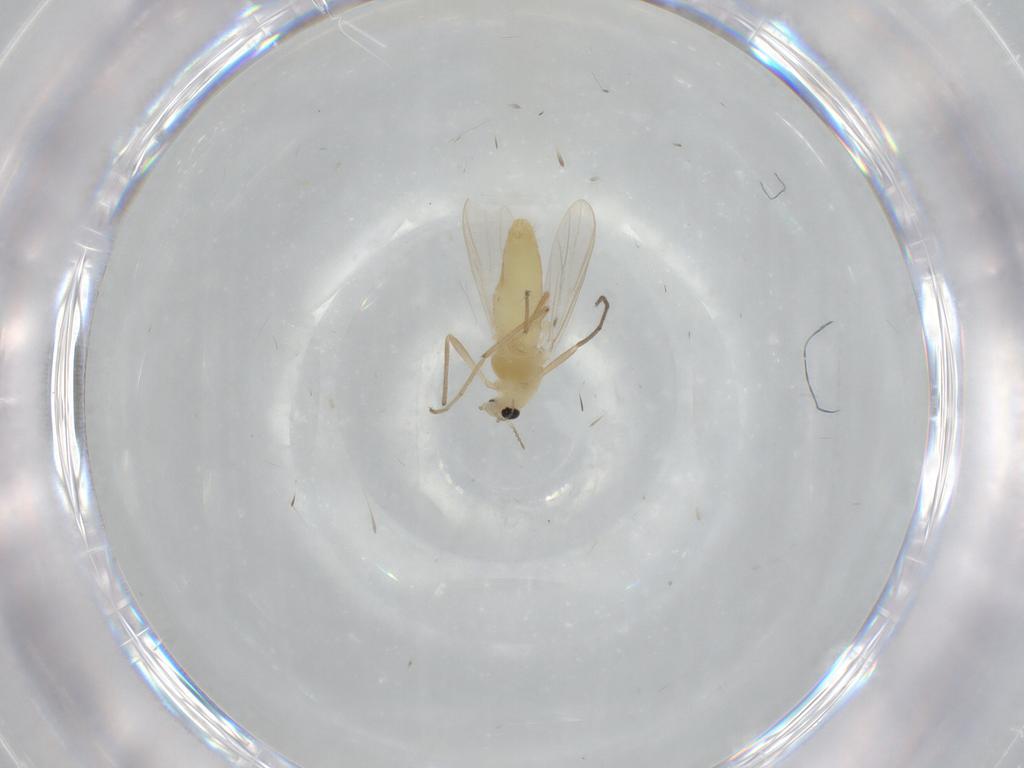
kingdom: Animalia
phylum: Arthropoda
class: Insecta
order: Diptera
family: Chironomidae
